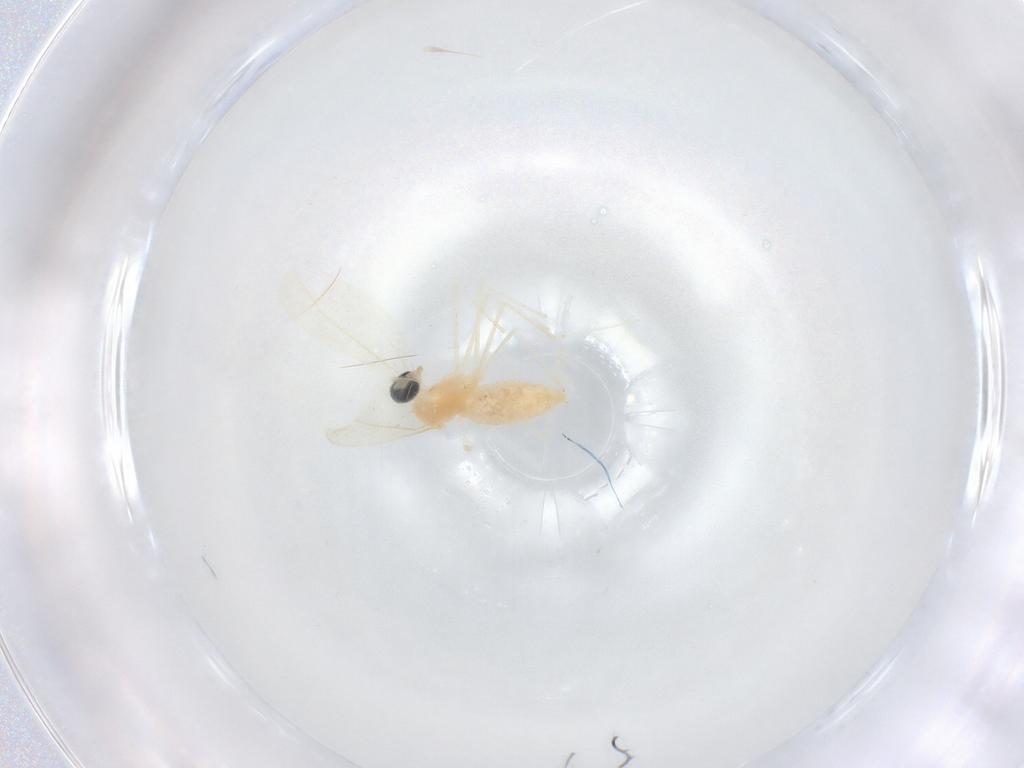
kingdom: Animalia
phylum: Arthropoda
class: Insecta
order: Diptera
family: Cecidomyiidae
